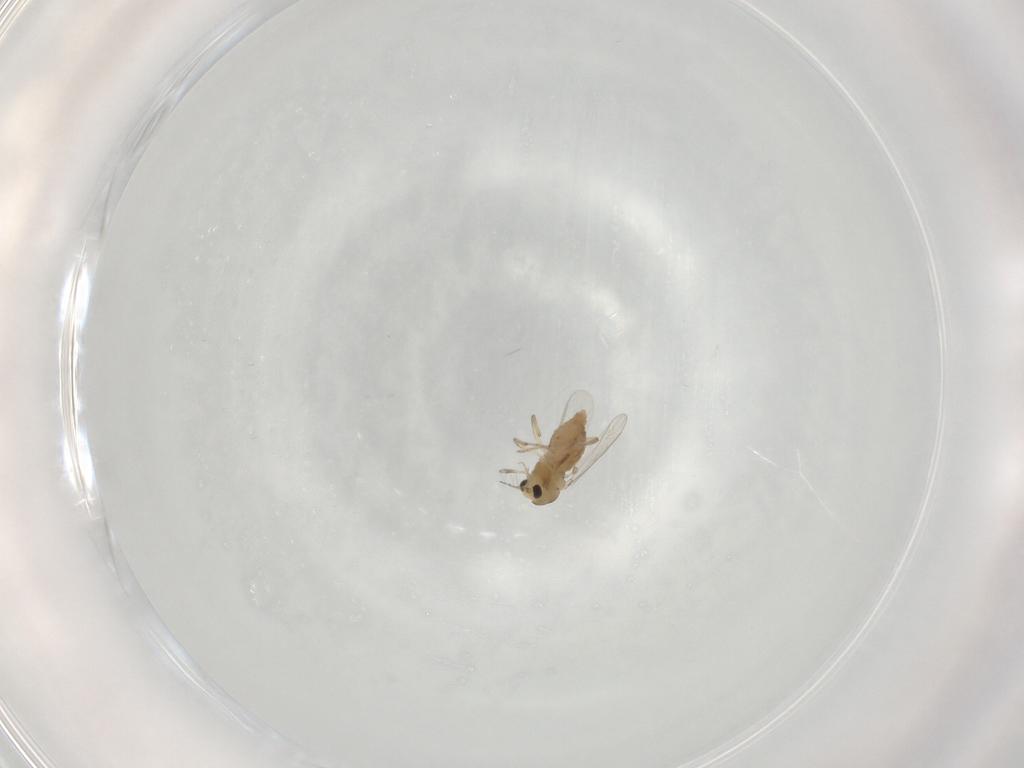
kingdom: Animalia
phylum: Arthropoda
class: Insecta
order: Diptera
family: Chironomidae
